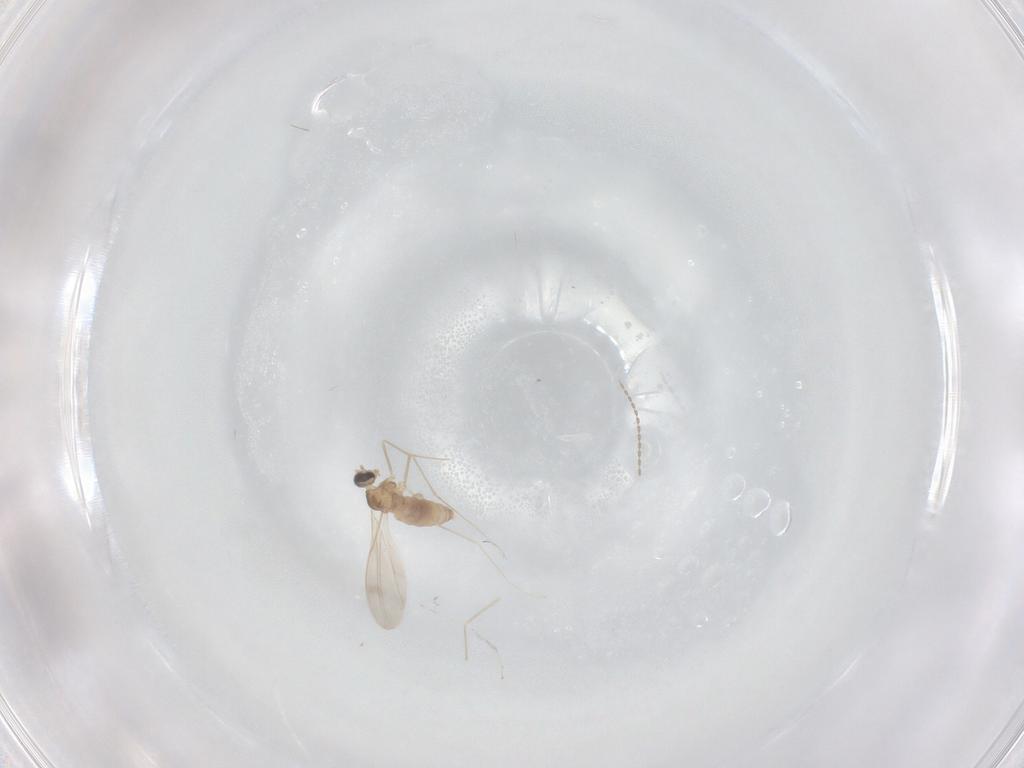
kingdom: Animalia
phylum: Arthropoda
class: Insecta
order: Diptera
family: Cecidomyiidae
